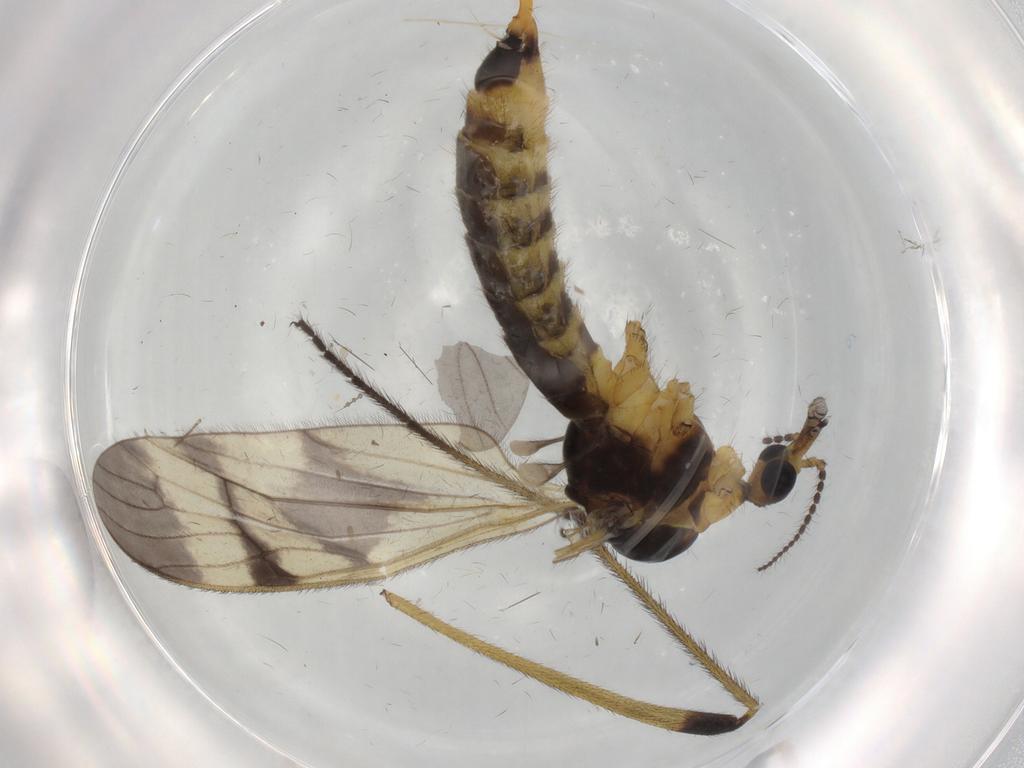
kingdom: Animalia
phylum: Arthropoda
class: Insecta
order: Diptera
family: Limoniidae
